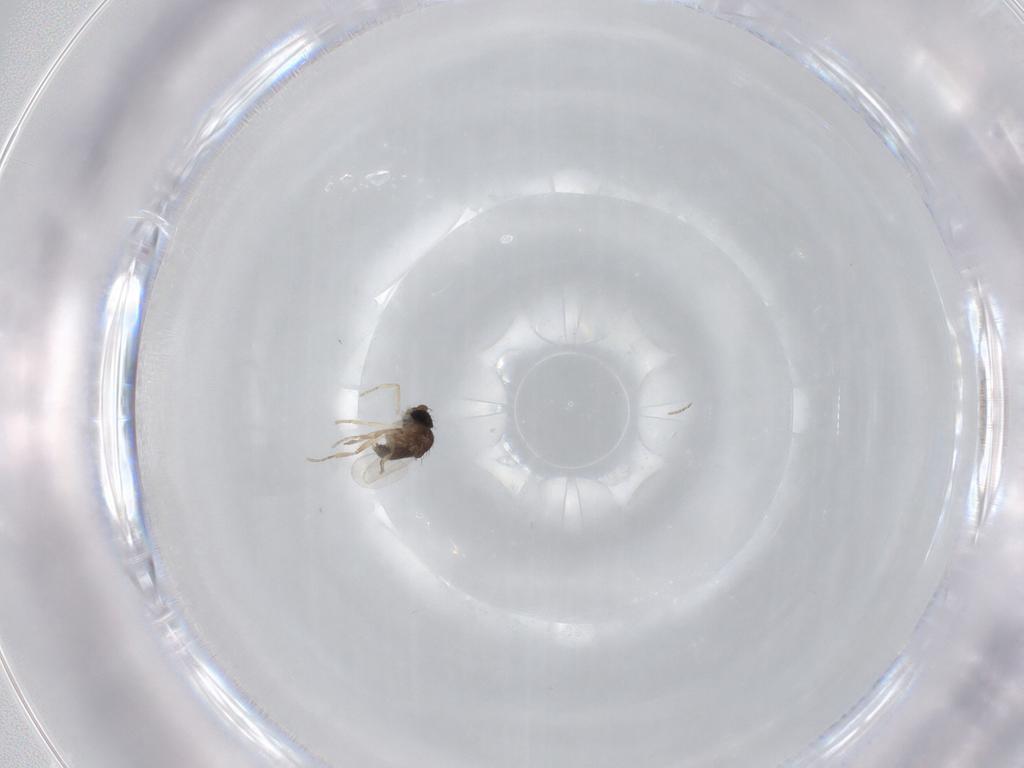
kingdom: Animalia
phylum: Arthropoda
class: Insecta
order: Diptera
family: Phoridae
